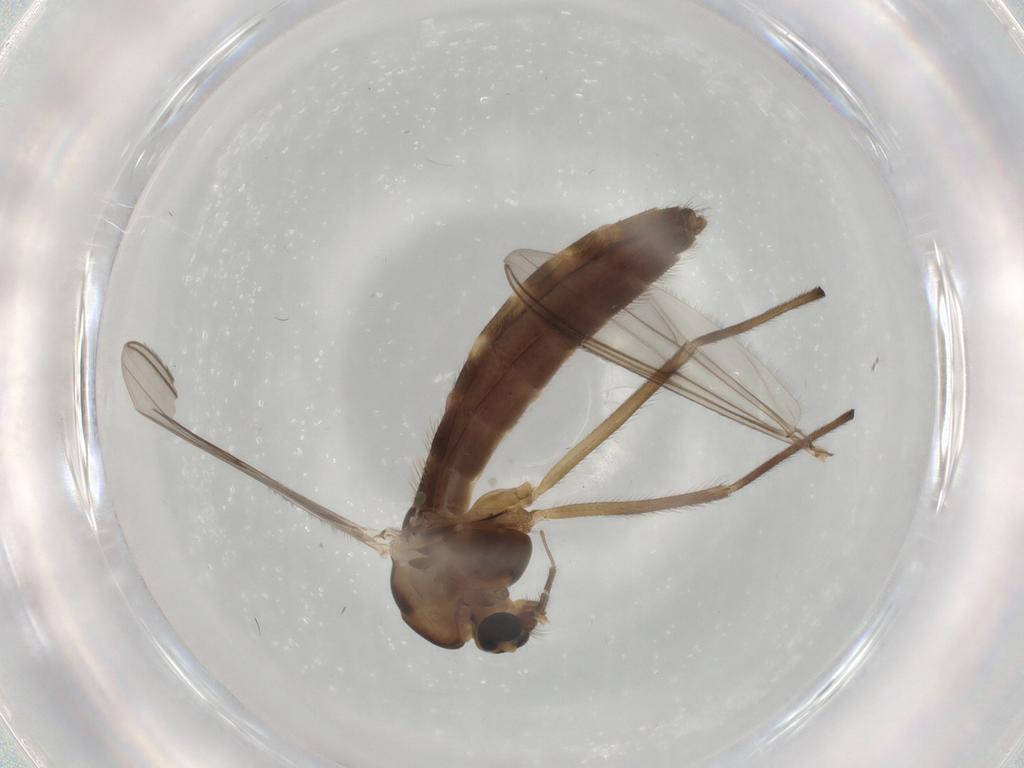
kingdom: Animalia
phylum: Arthropoda
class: Insecta
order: Diptera
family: Chironomidae
